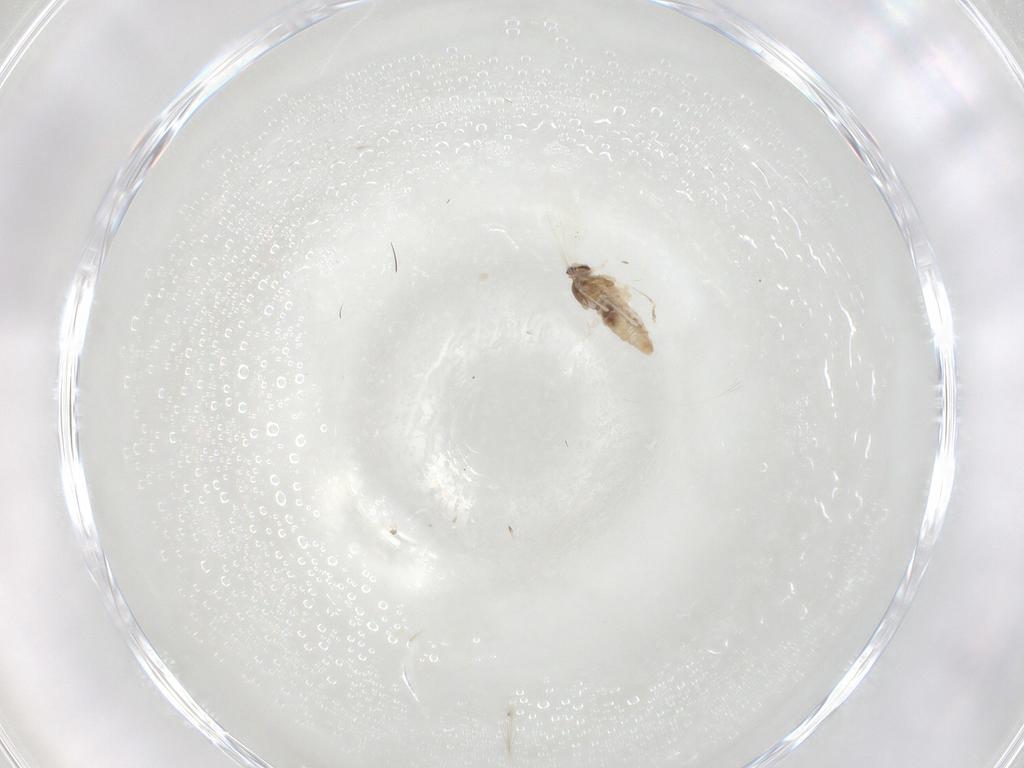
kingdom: Animalia
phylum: Arthropoda
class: Insecta
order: Diptera
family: Cecidomyiidae
